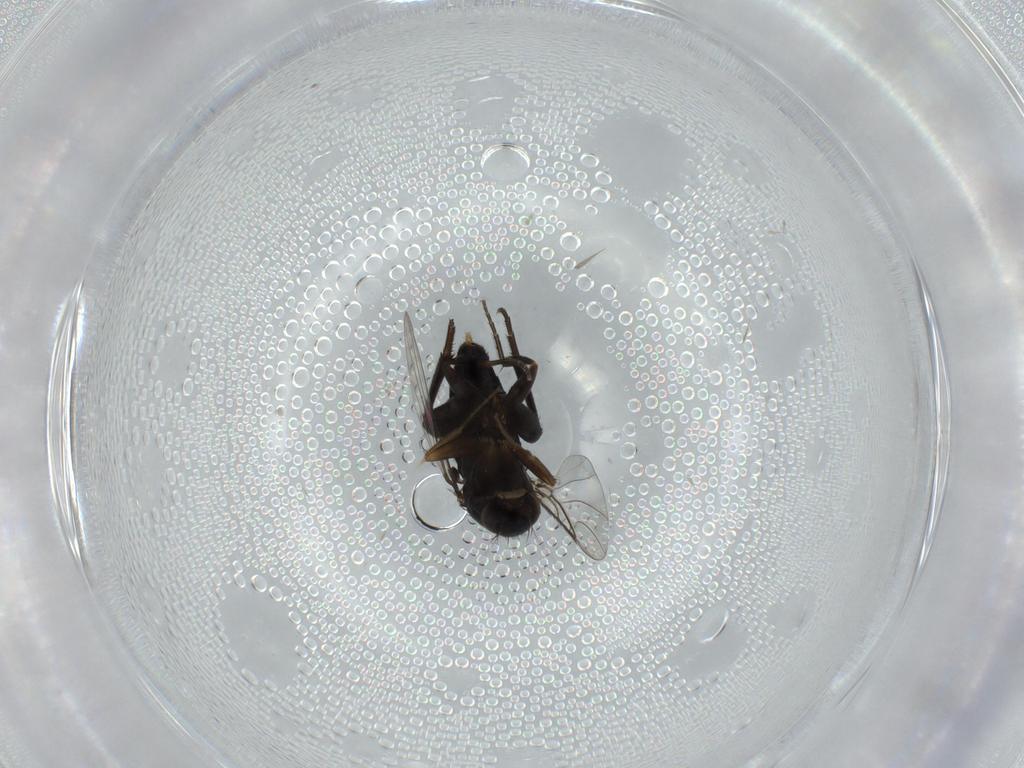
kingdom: Animalia
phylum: Arthropoda
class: Insecta
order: Diptera
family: Phoridae
